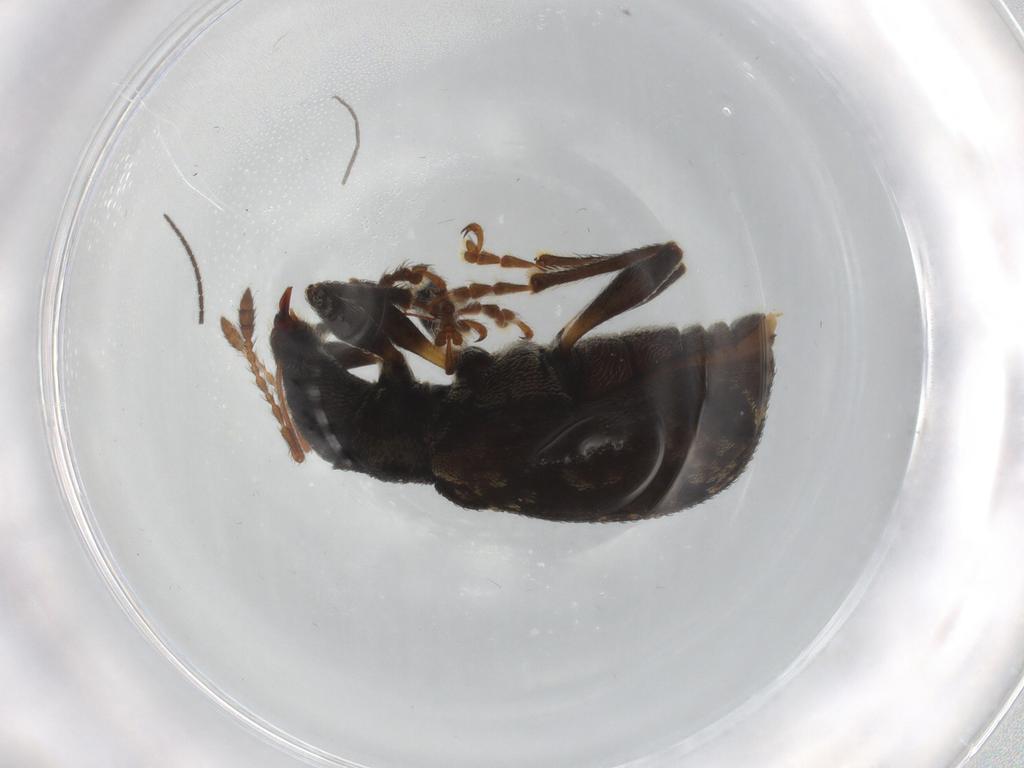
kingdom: Animalia
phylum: Arthropoda
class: Insecta
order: Coleoptera
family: Curculionidae
